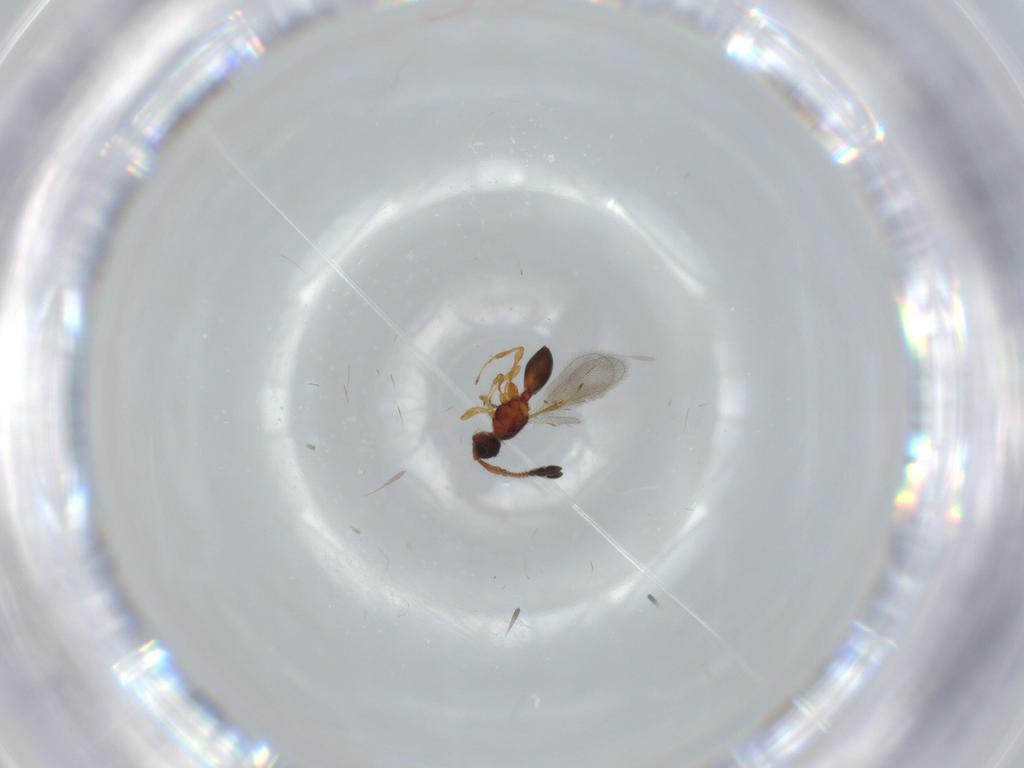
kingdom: Animalia
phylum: Arthropoda
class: Insecta
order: Hymenoptera
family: Diapriidae
